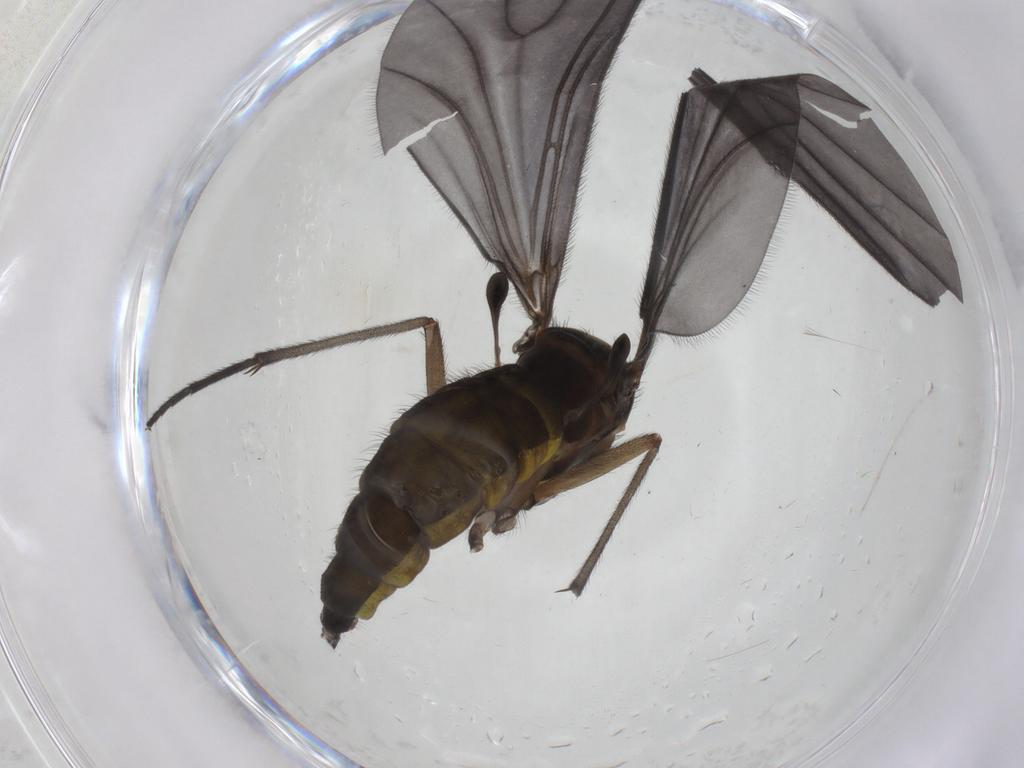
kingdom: Animalia
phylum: Arthropoda
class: Insecta
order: Diptera
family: Sciaridae
